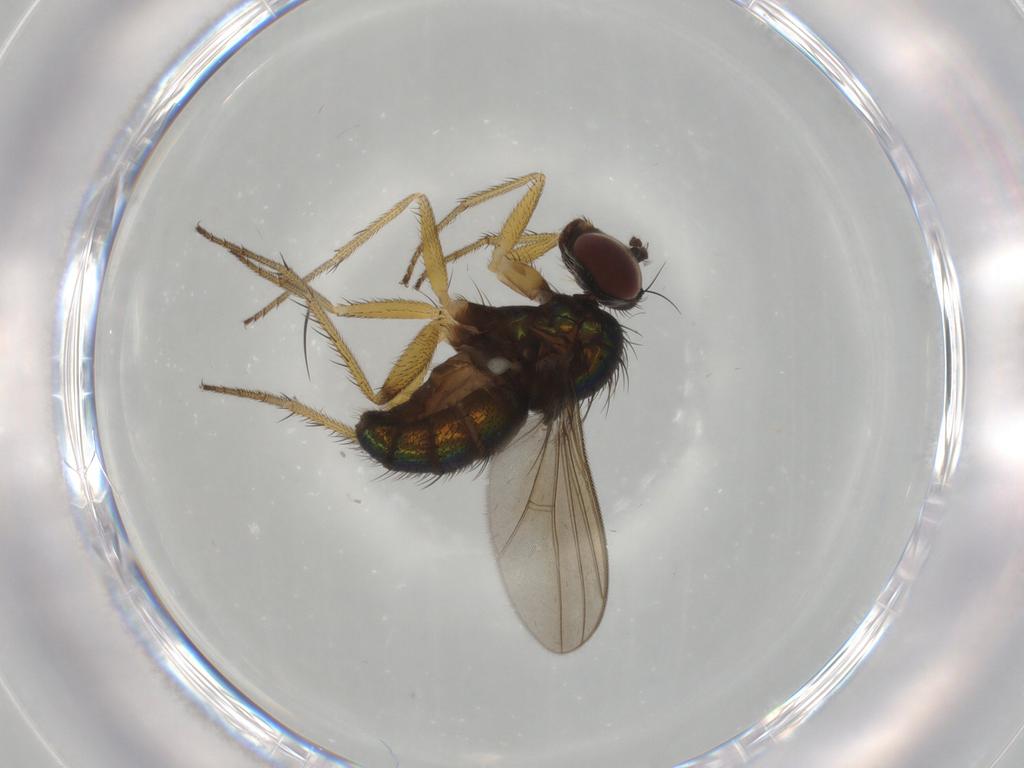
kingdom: Animalia
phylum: Arthropoda
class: Insecta
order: Diptera
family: Dolichopodidae
